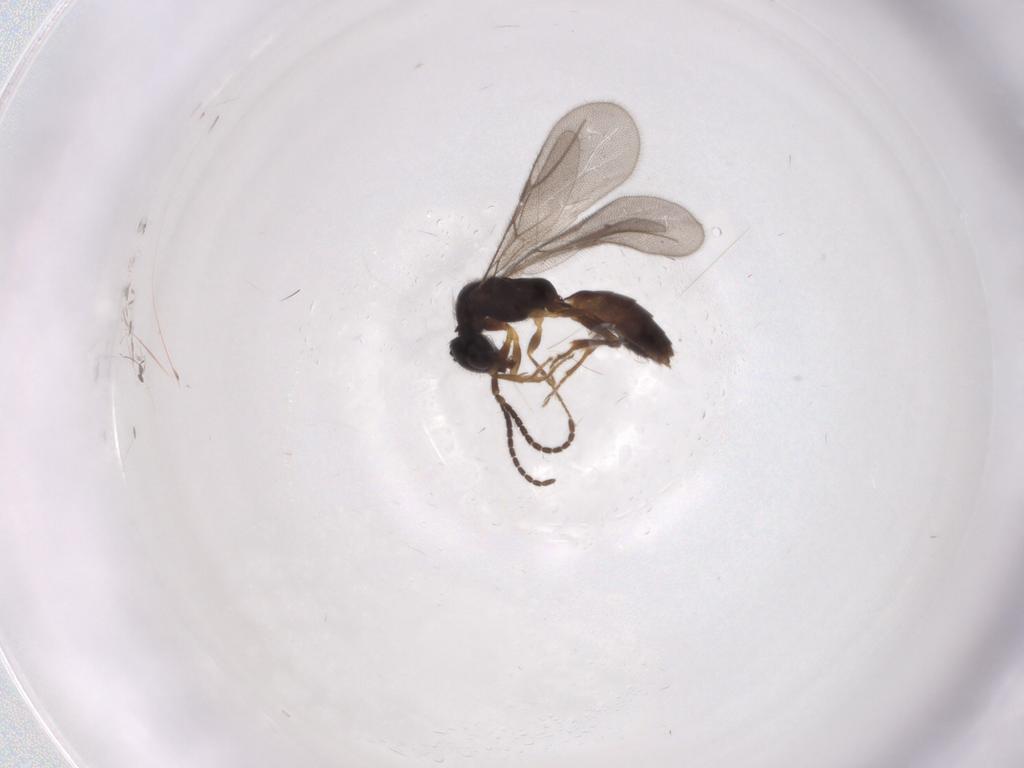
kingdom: Animalia
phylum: Arthropoda
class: Insecta
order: Hymenoptera
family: Bethylidae
